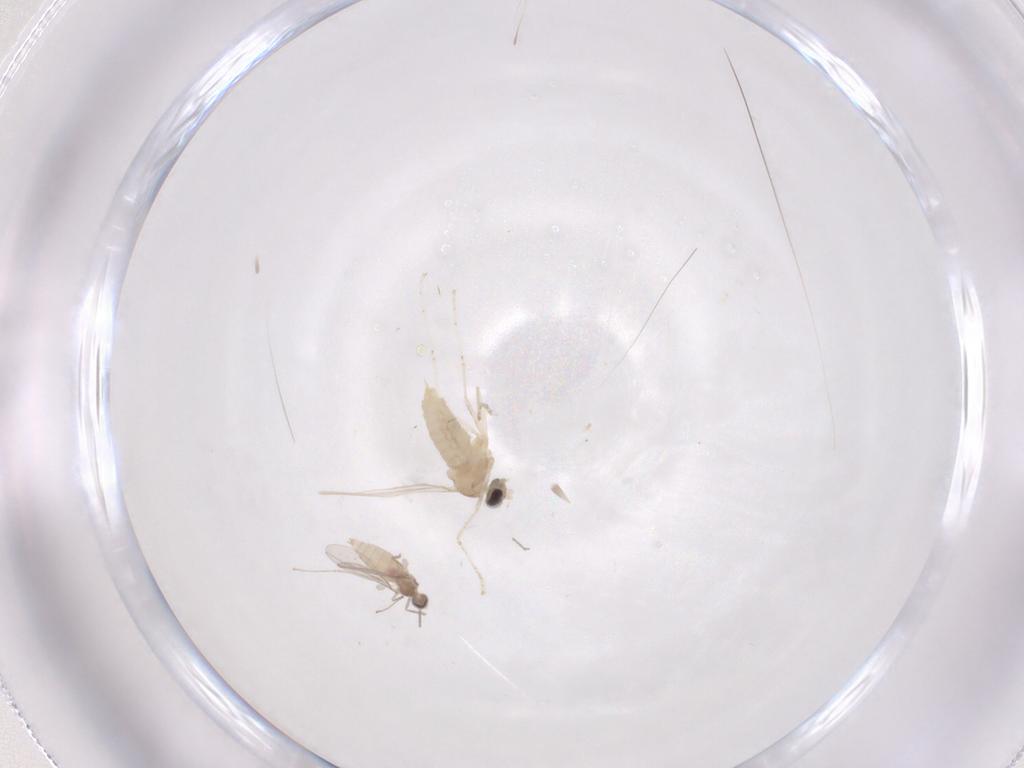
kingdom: Animalia
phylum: Arthropoda
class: Insecta
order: Diptera
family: Cecidomyiidae
